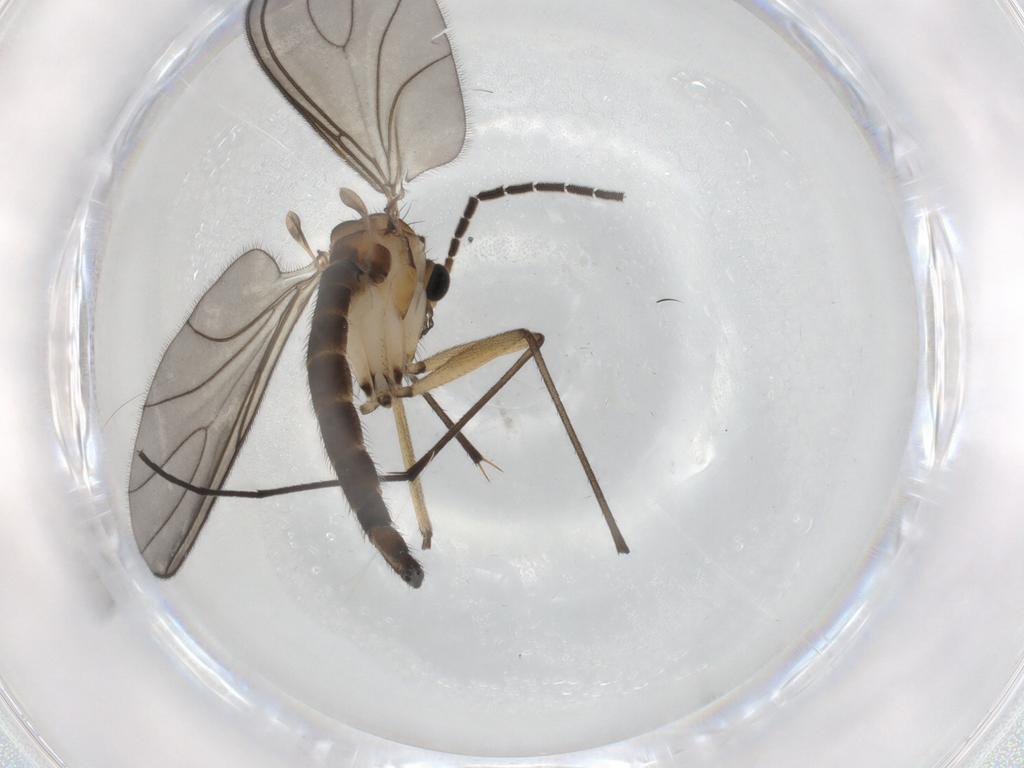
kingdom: Animalia
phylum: Arthropoda
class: Insecta
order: Diptera
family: Sciaridae
